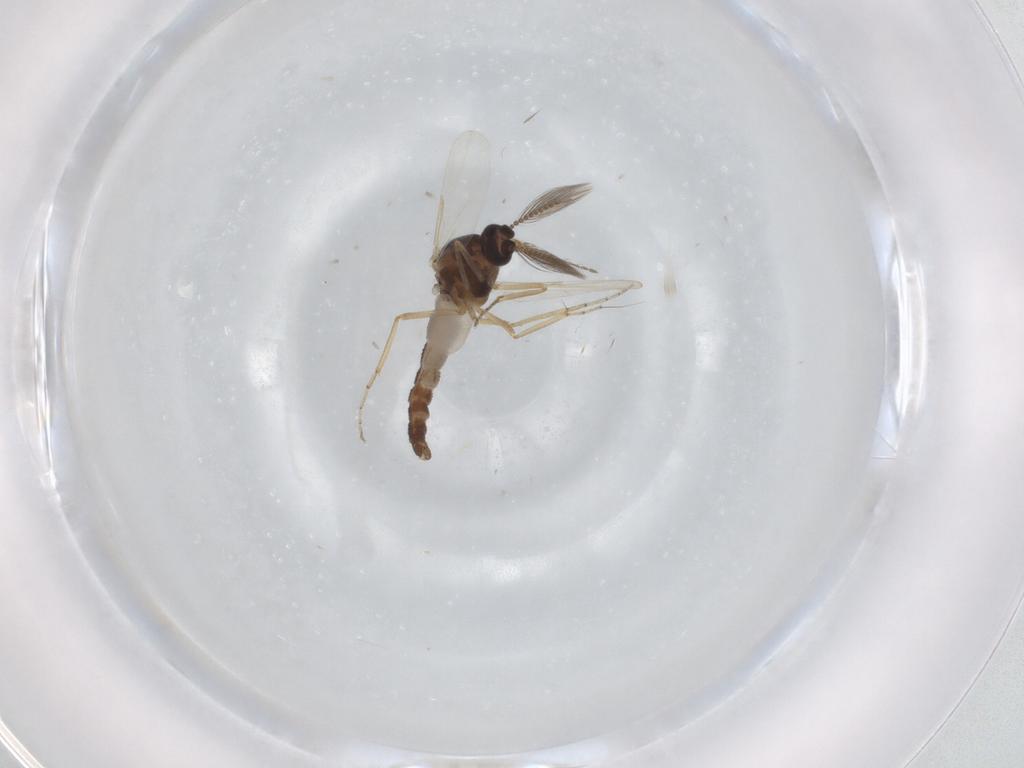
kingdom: Animalia
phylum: Arthropoda
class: Insecta
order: Diptera
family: Ceratopogonidae
